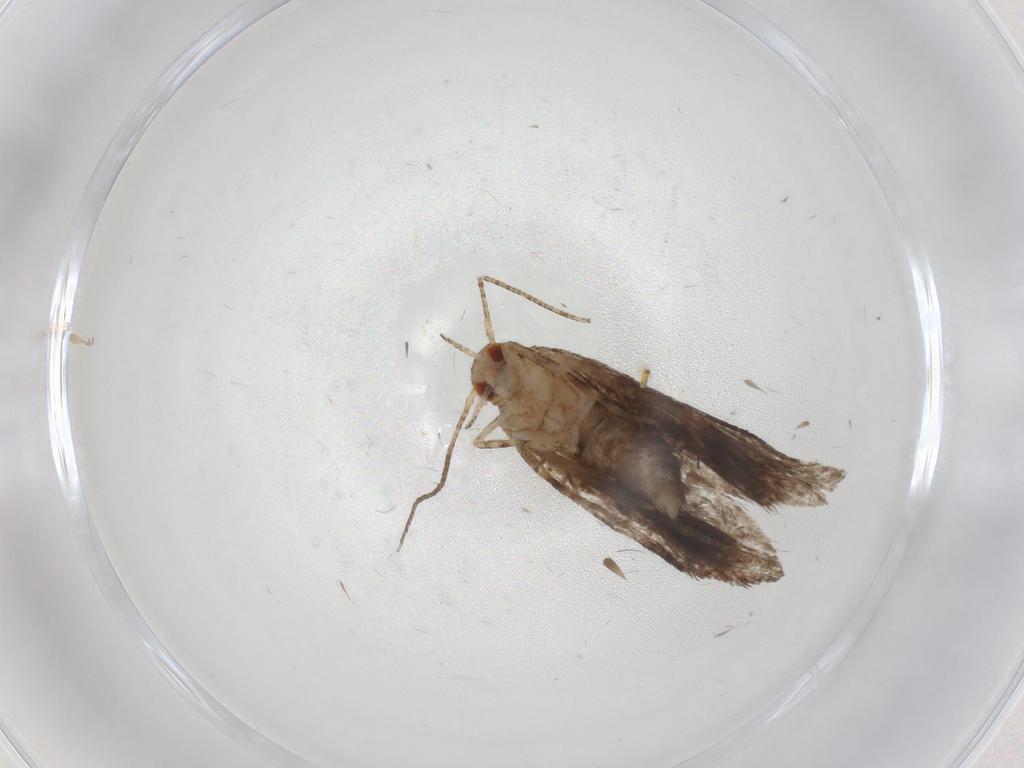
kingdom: Animalia
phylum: Arthropoda
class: Insecta
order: Lepidoptera
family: Gelechiidae
